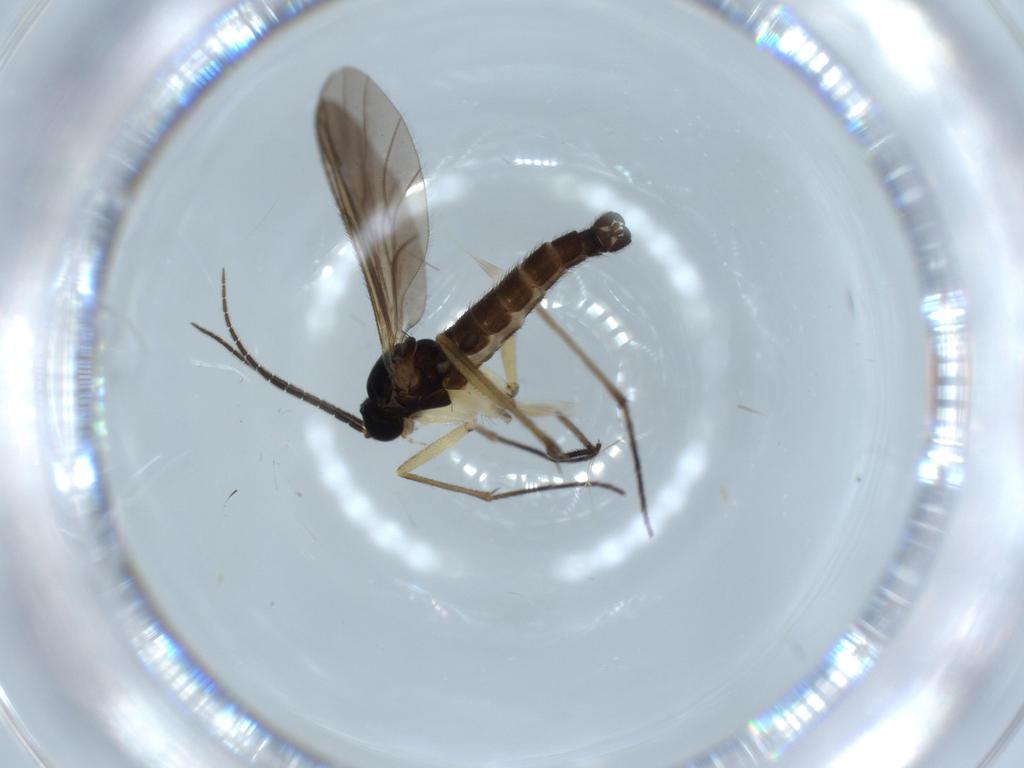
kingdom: Animalia
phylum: Arthropoda
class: Insecta
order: Diptera
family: Sciaridae
